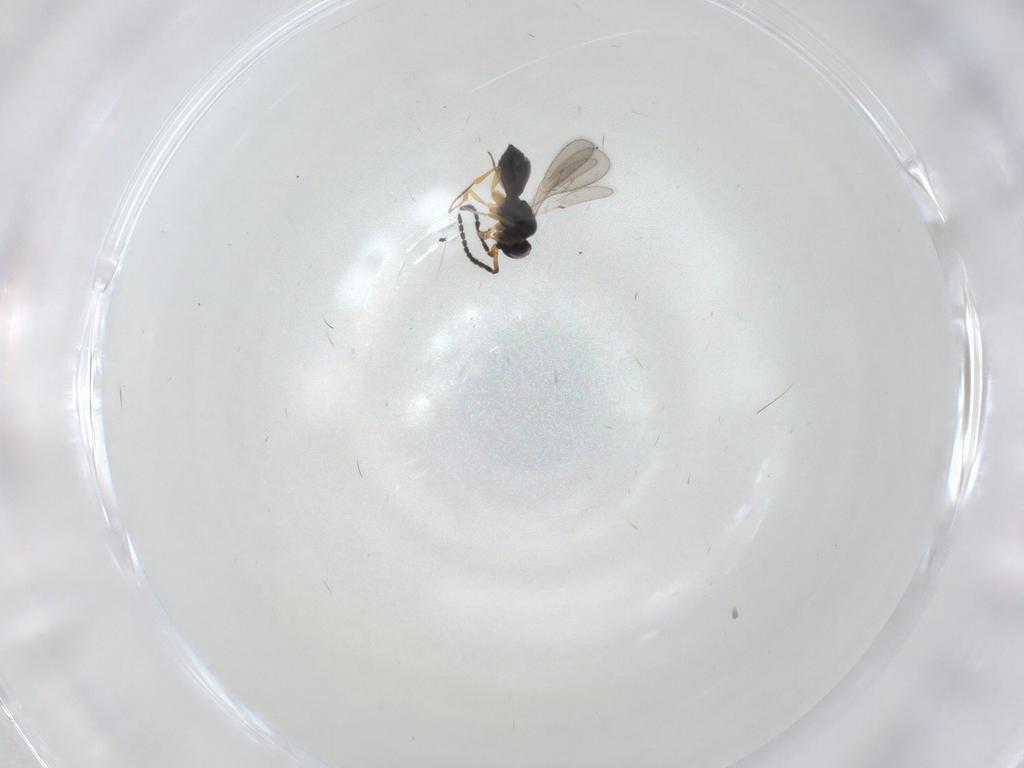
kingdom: Animalia
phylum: Arthropoda
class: Insecta
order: Hymenoptera
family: Scelionidae
